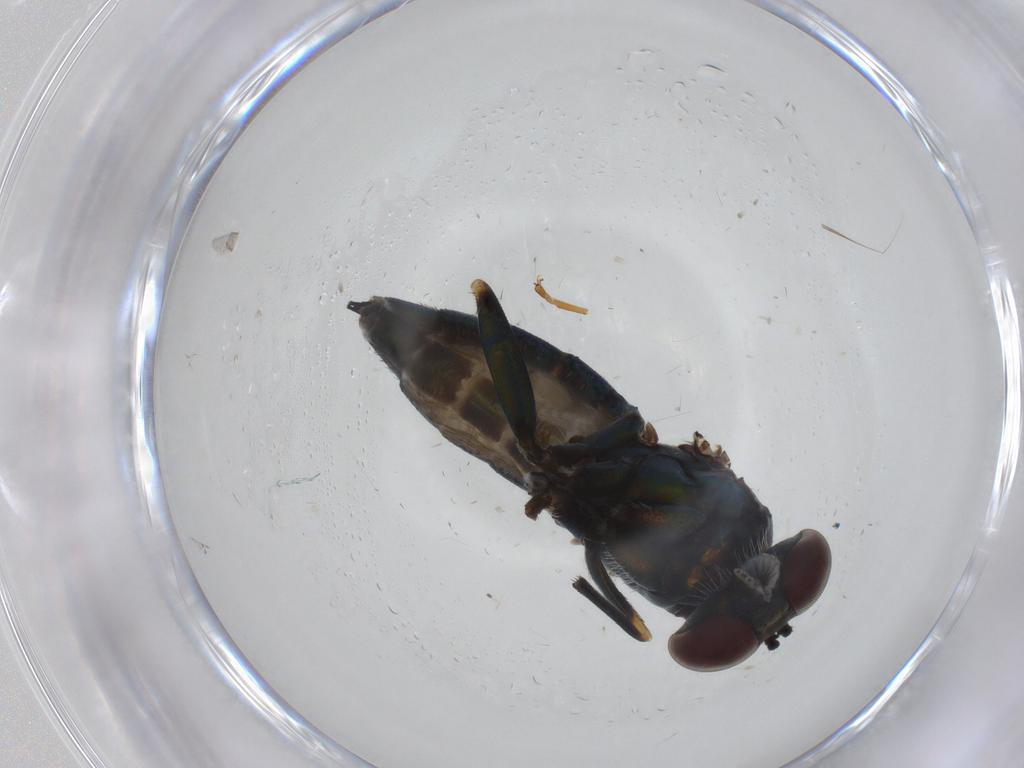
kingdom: Animalia
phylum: Arthropoda
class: Insecta
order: Diptera
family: Dolichopodidae
